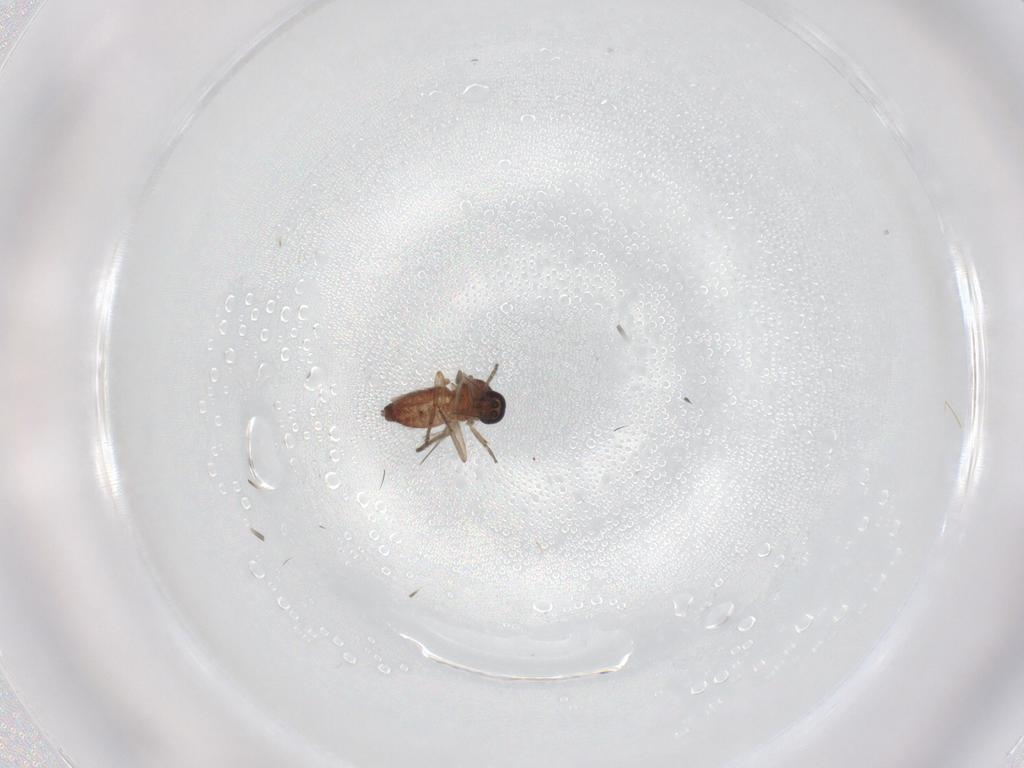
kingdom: Animalia
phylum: Arthropoda
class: Insecta
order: Diptera
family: Ceratopogonidae
